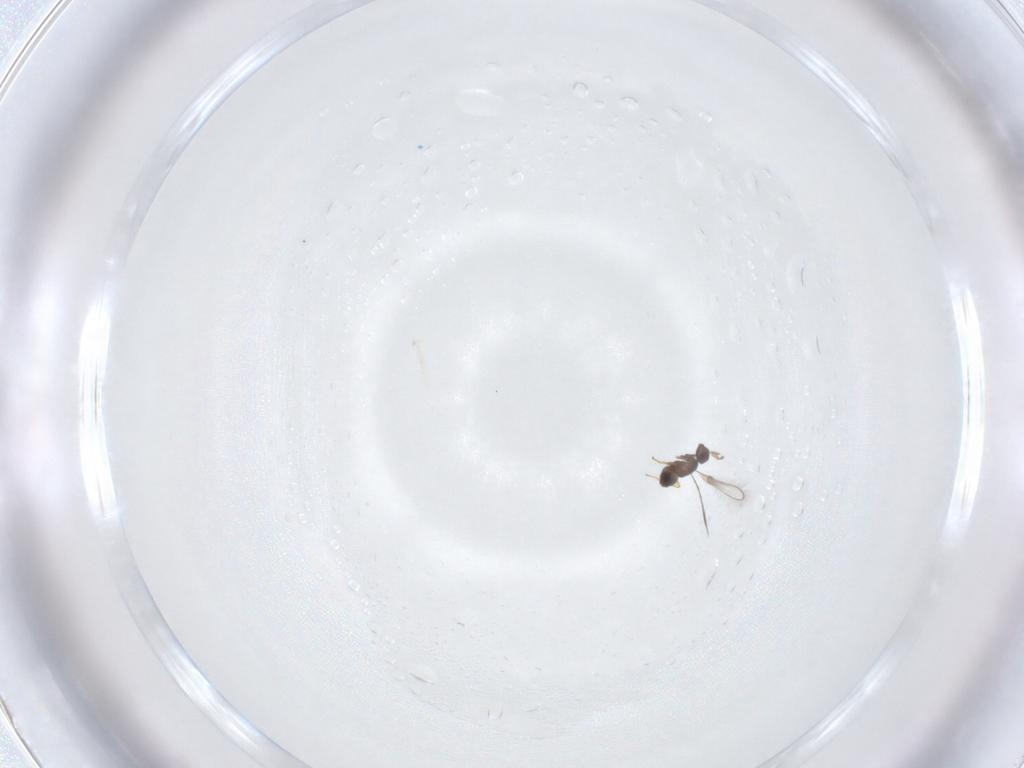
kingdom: Animalia
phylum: Arthropoda
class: Insecta
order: Hymenoptera
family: Mymaridae
